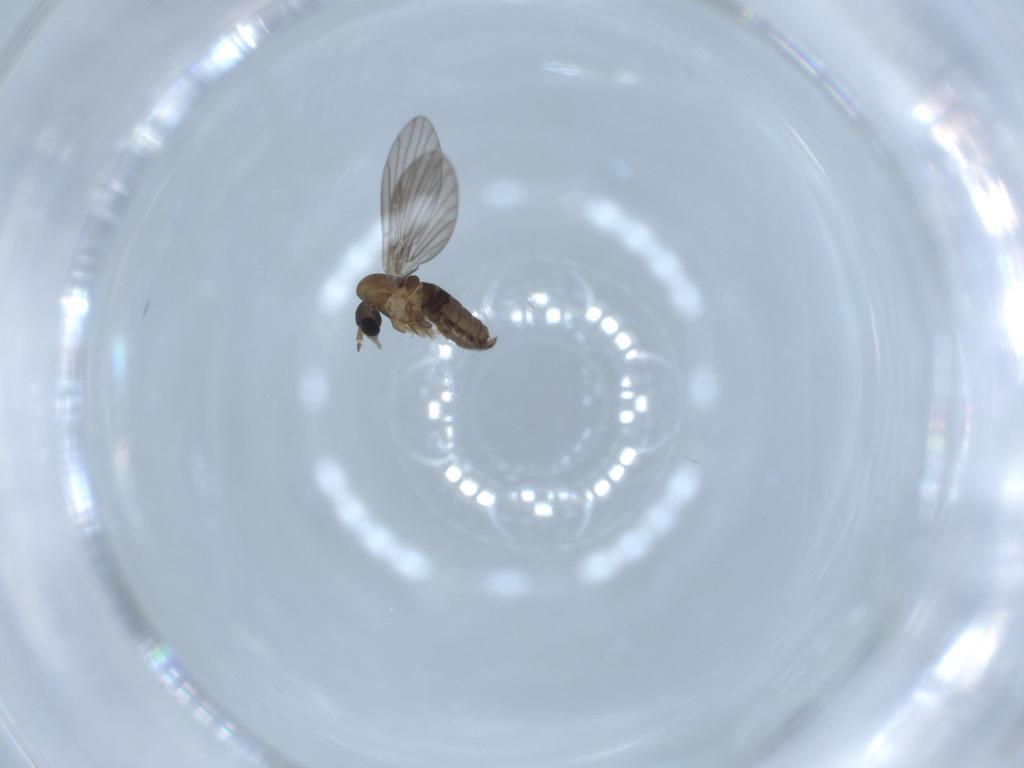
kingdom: Animalia
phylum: Arthropoda
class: Insecta
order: Diptera
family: Psychodidae
